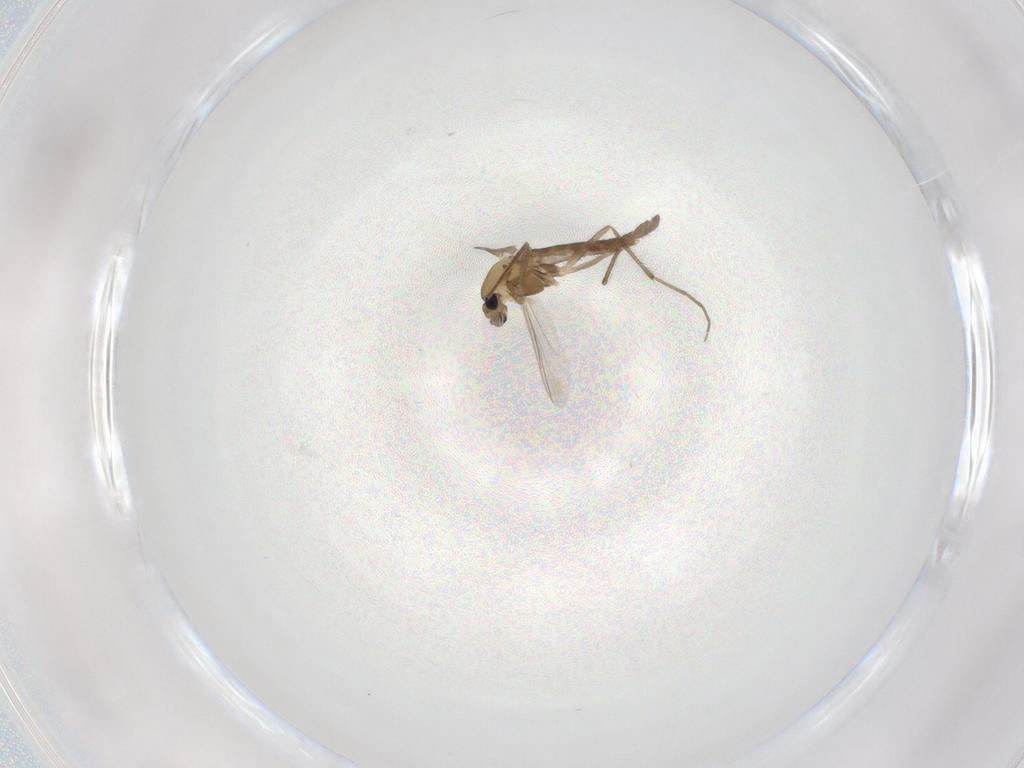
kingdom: Animalia
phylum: Arthropoda
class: Insecta
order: Diptera
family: Chironomidae
